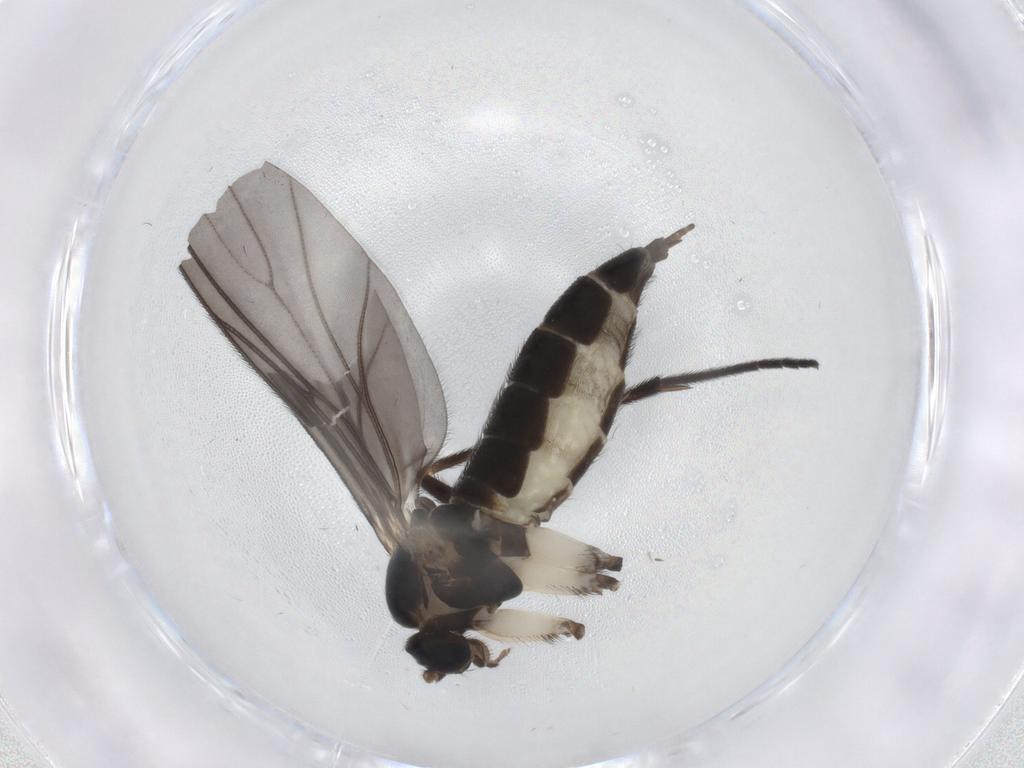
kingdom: Animalia
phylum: Arthropoda
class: Insecta
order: Diptera
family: Sciaridae
